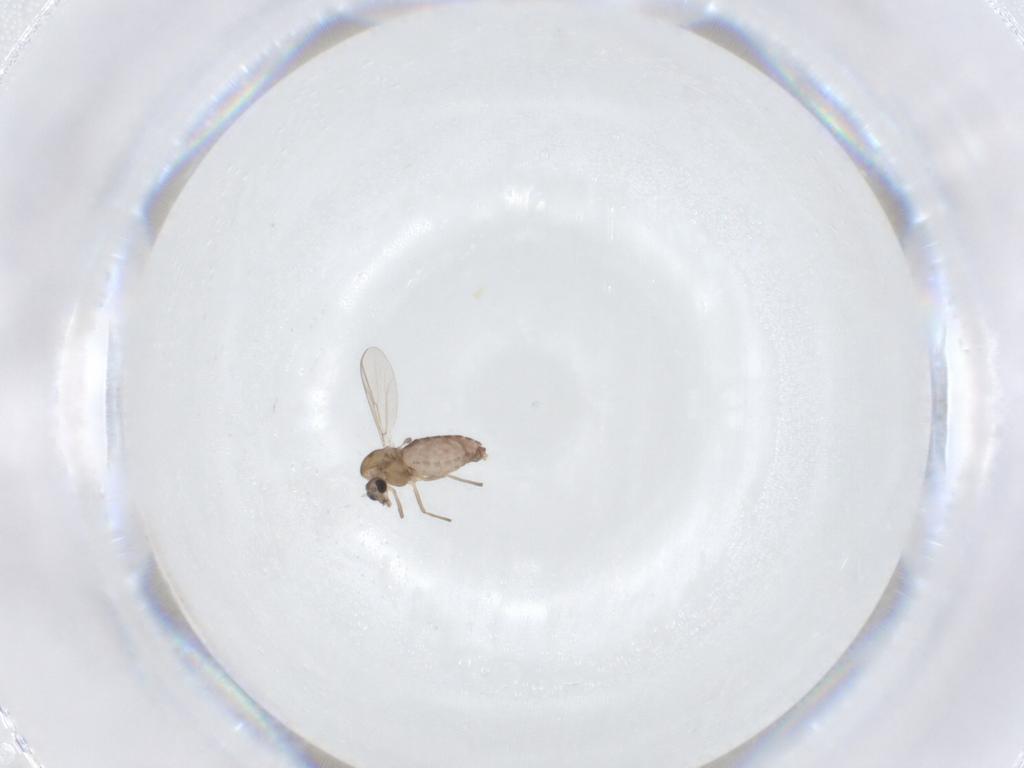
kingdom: Animalia
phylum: Arthropoda
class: Insecta
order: Diptera
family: Chironomidae
